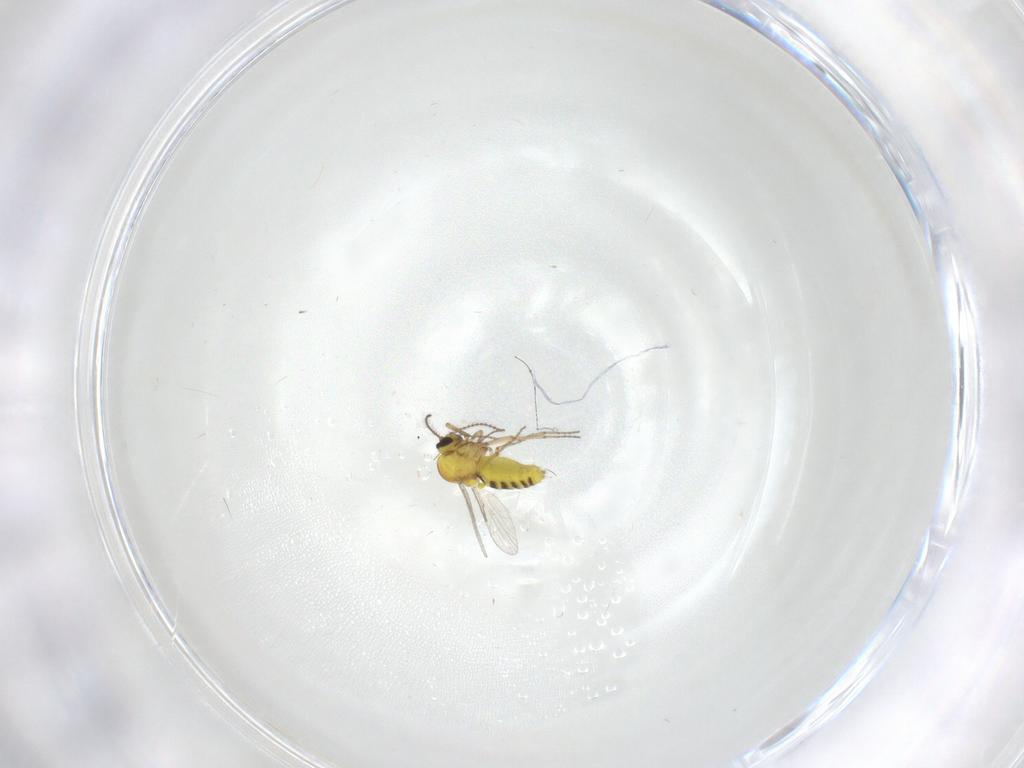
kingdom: Animalia
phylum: Arthropoda
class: Insecta
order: Diptera
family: Ceratopogonidae
